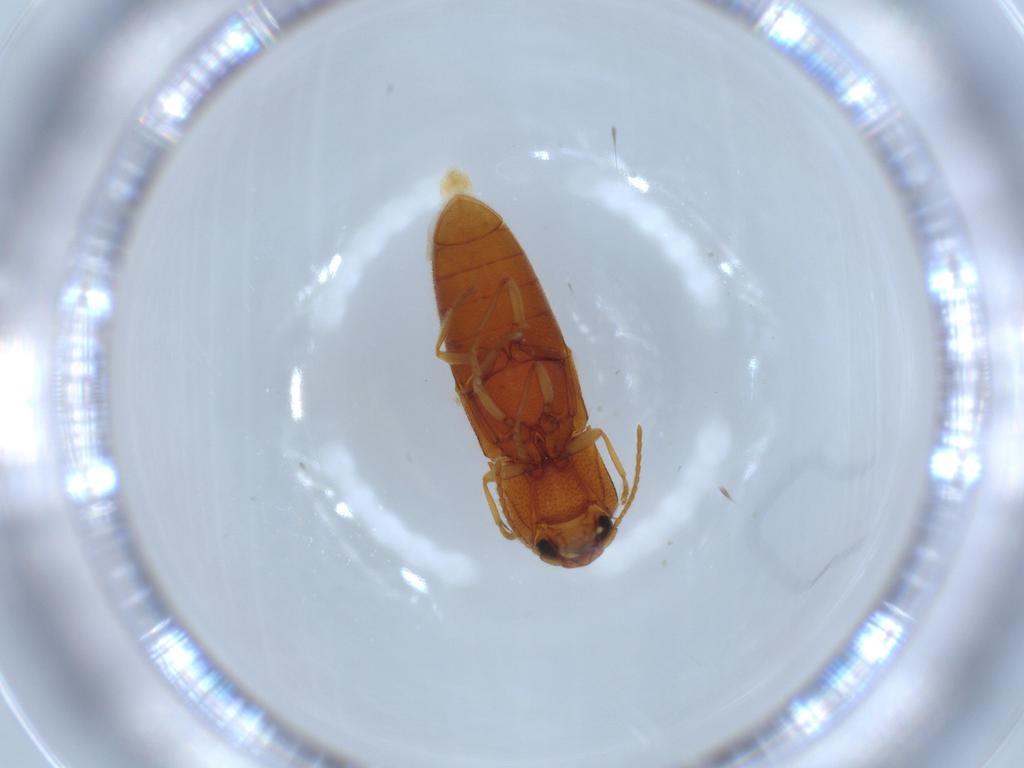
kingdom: Animalia
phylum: Arthropoda
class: Insecta
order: Coleoptera
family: Elateridae
